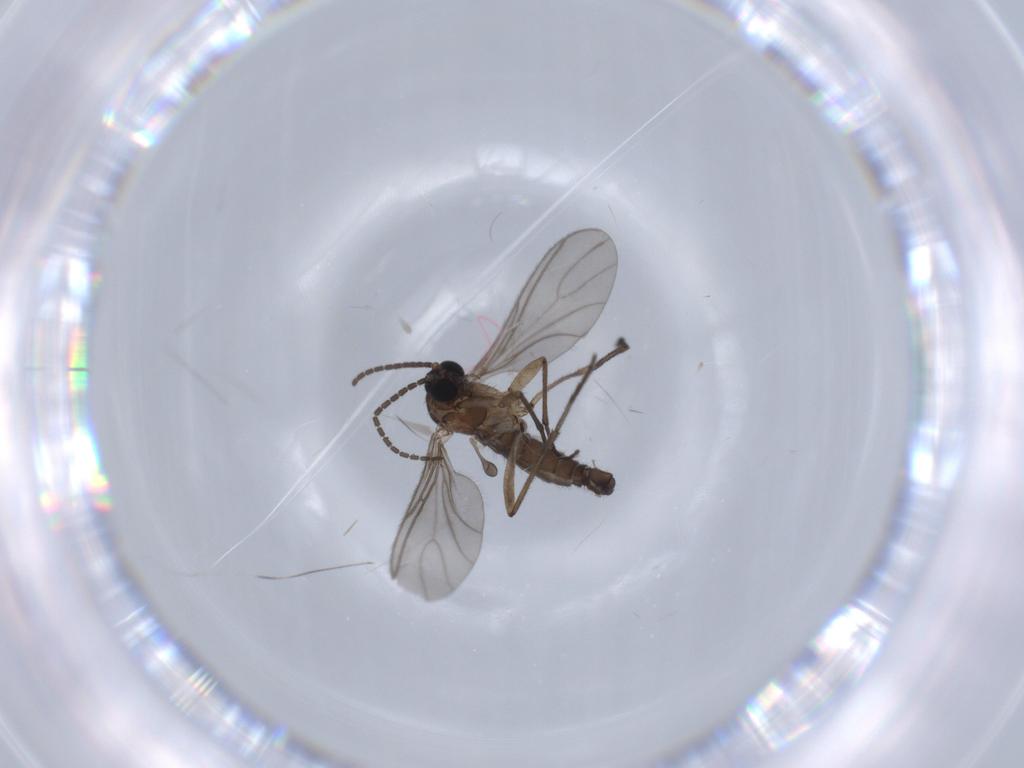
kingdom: Animalia
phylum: Arthropoda
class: Insecta
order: Diptera
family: Sciaridae
